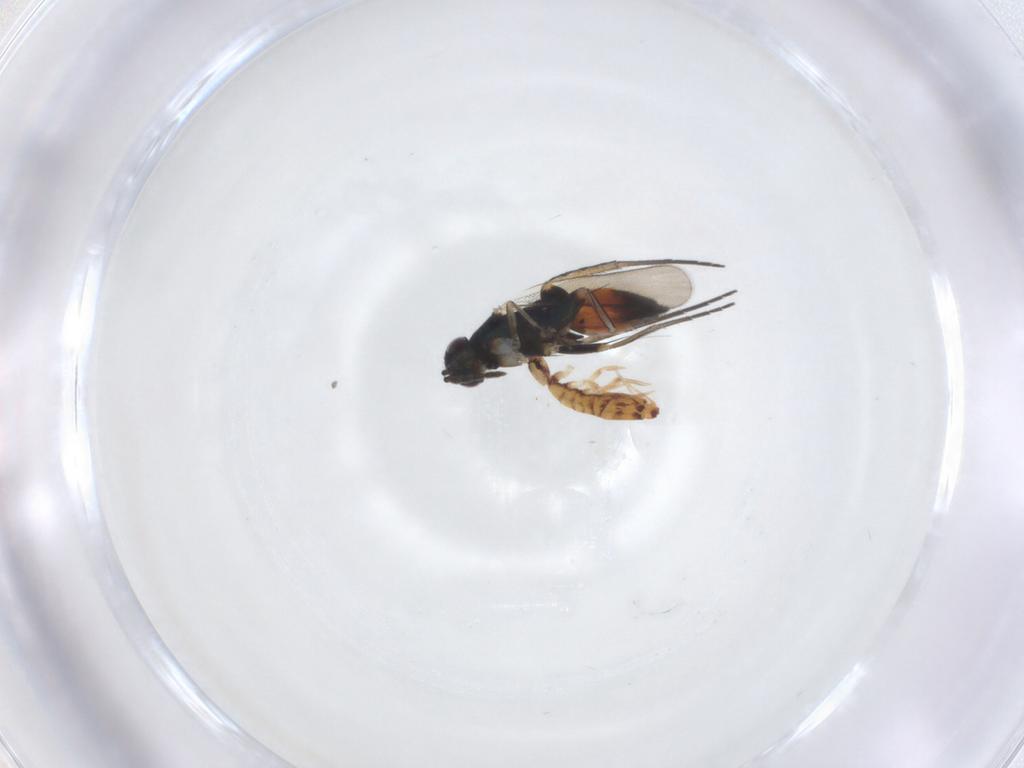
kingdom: Animalia
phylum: Arthropoda
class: Insecta
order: Hymenoptera
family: Eulophidae
